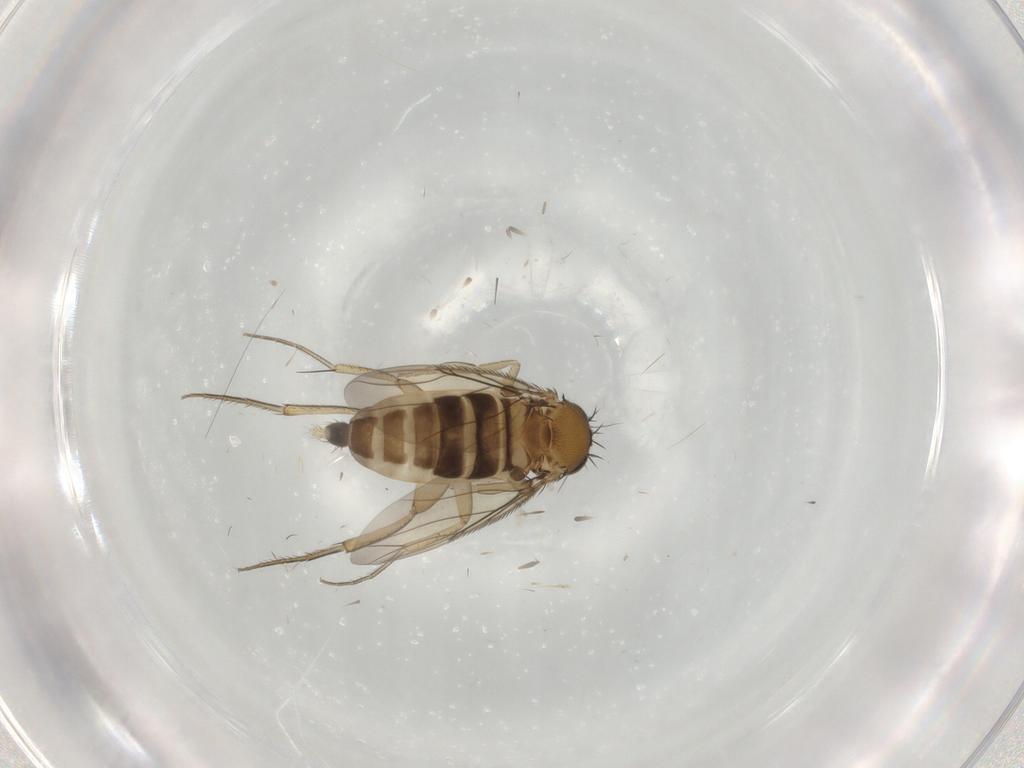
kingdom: Animalia
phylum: Arthropoda
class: Insecta
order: Diptera
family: Phoridae
